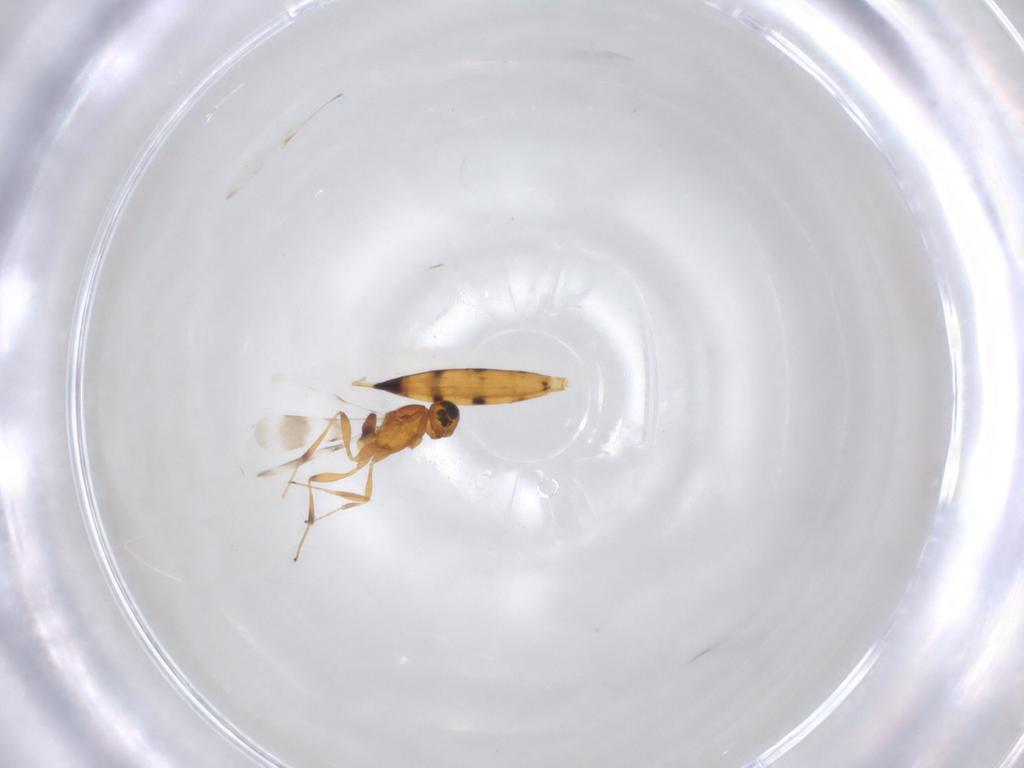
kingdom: Animalia
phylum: Arthropoda
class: Insecta
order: Hymenoptera
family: Scelionidae
